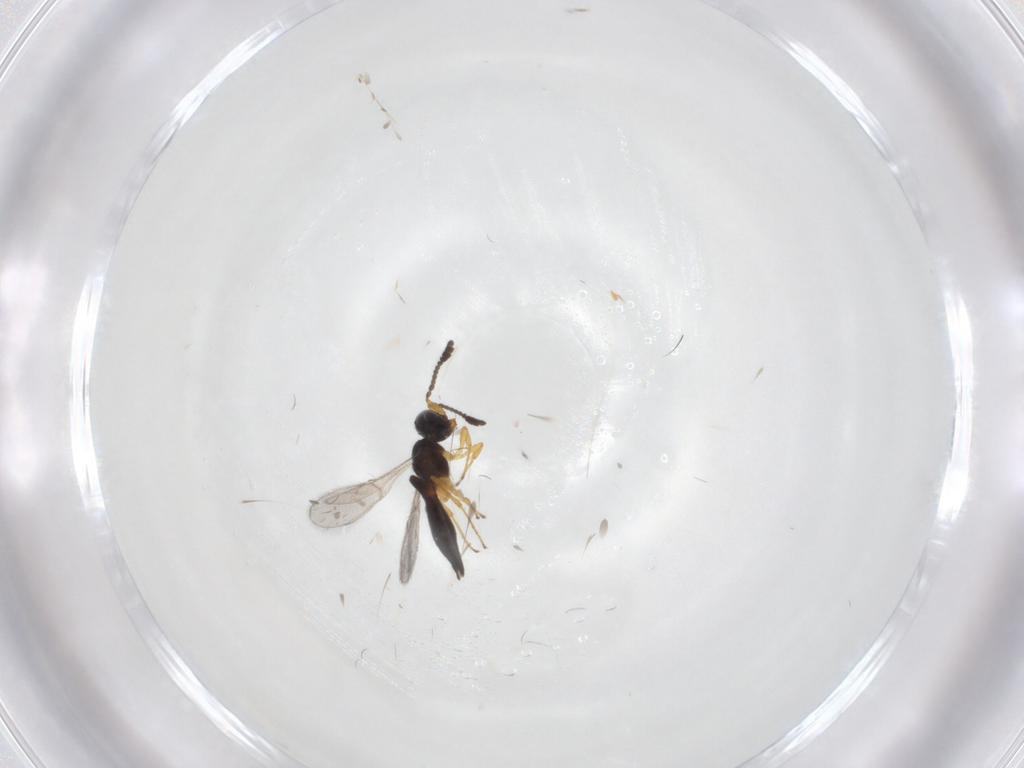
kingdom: Animalia
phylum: Arthropoda
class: Insecta
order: Hymenoptera
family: Scelionidae
